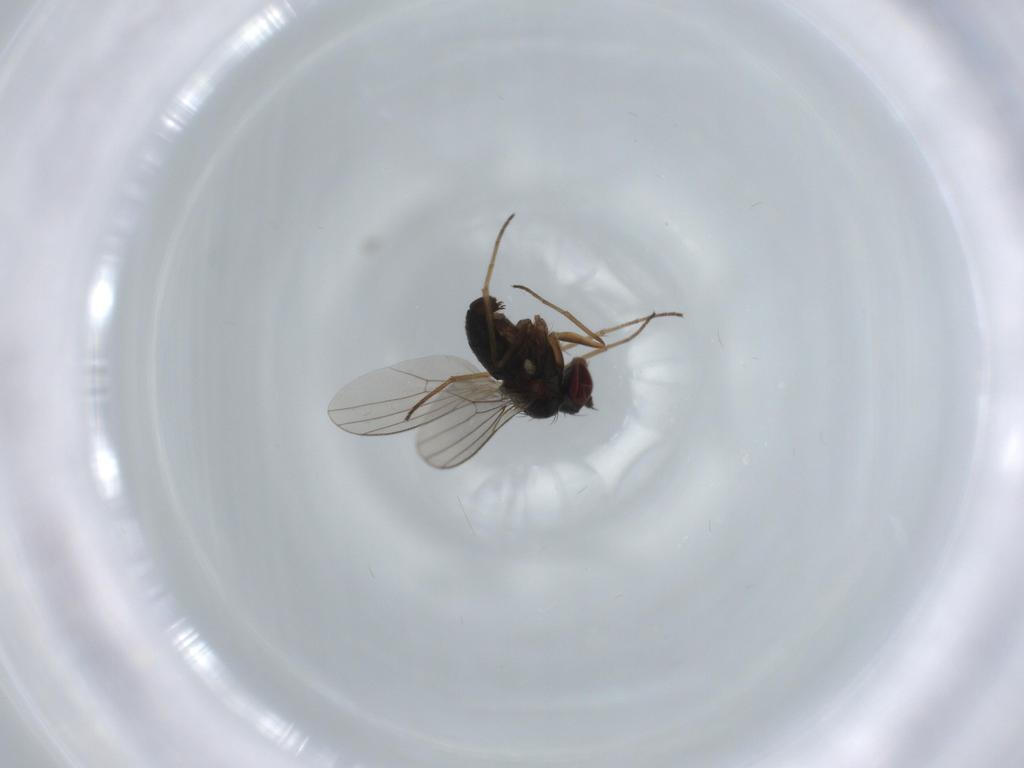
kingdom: Animalia
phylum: Arthropoda
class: Insecta
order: Diptera
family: Dolichopodidae
